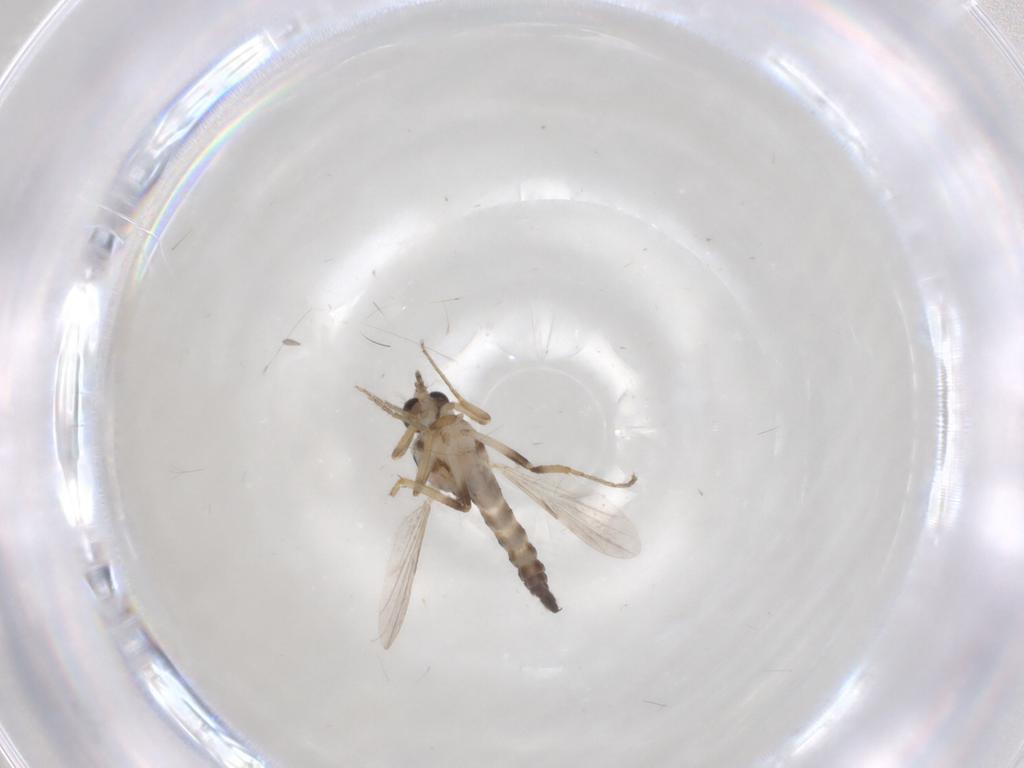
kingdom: Animalia
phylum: Arthropoda
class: Insecta
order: Diptera
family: Ceratopogonidae
